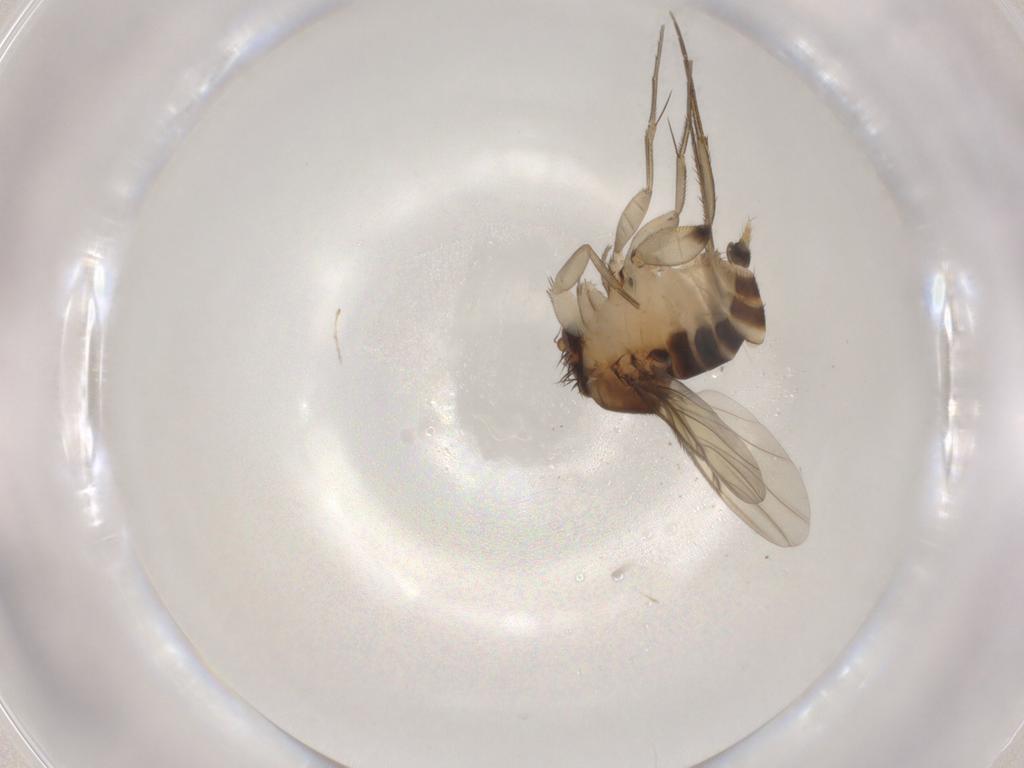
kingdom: Animalia
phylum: Arthropoda
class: Insecta
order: Diptera
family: Phoridae
